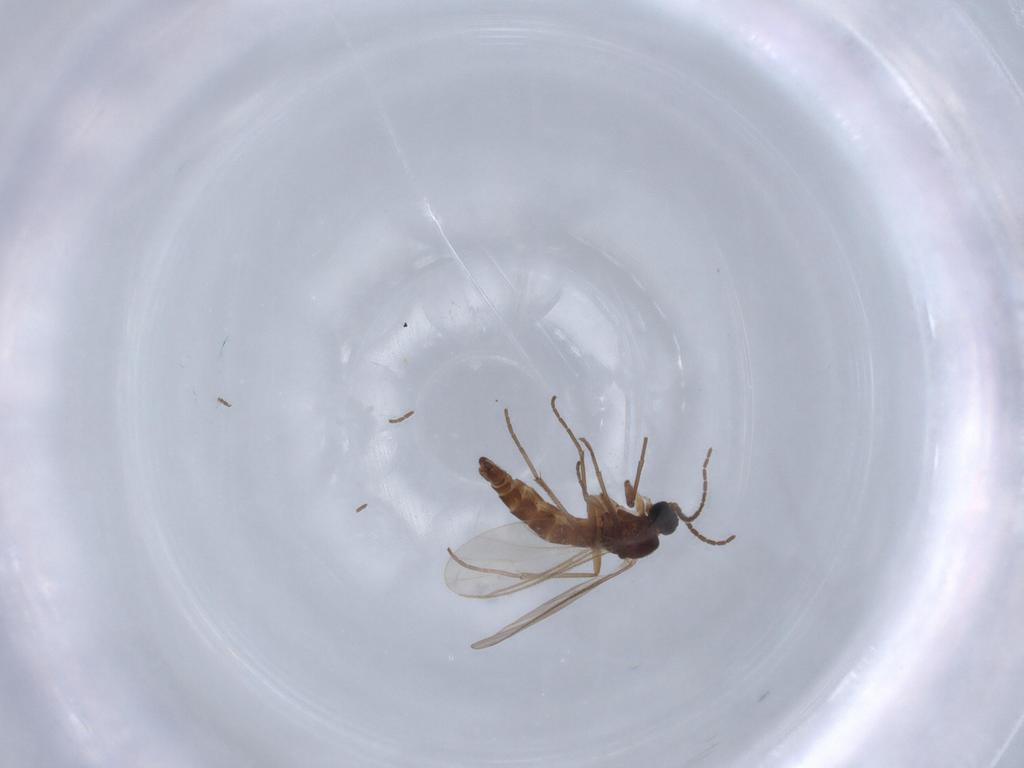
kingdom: Animalia
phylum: Arthropoda
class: Insecta
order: Diptera
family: Sciaridae
